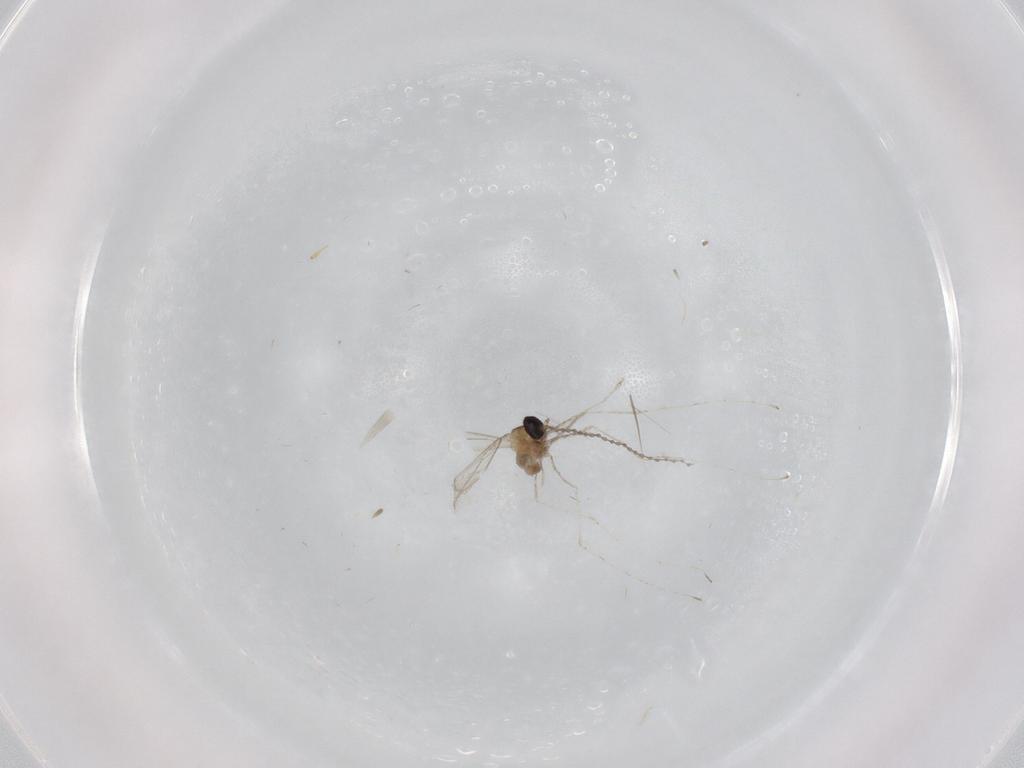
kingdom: Animalia
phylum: Arthropoda
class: Insecta
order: Diptera
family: Cecidomyiidae
